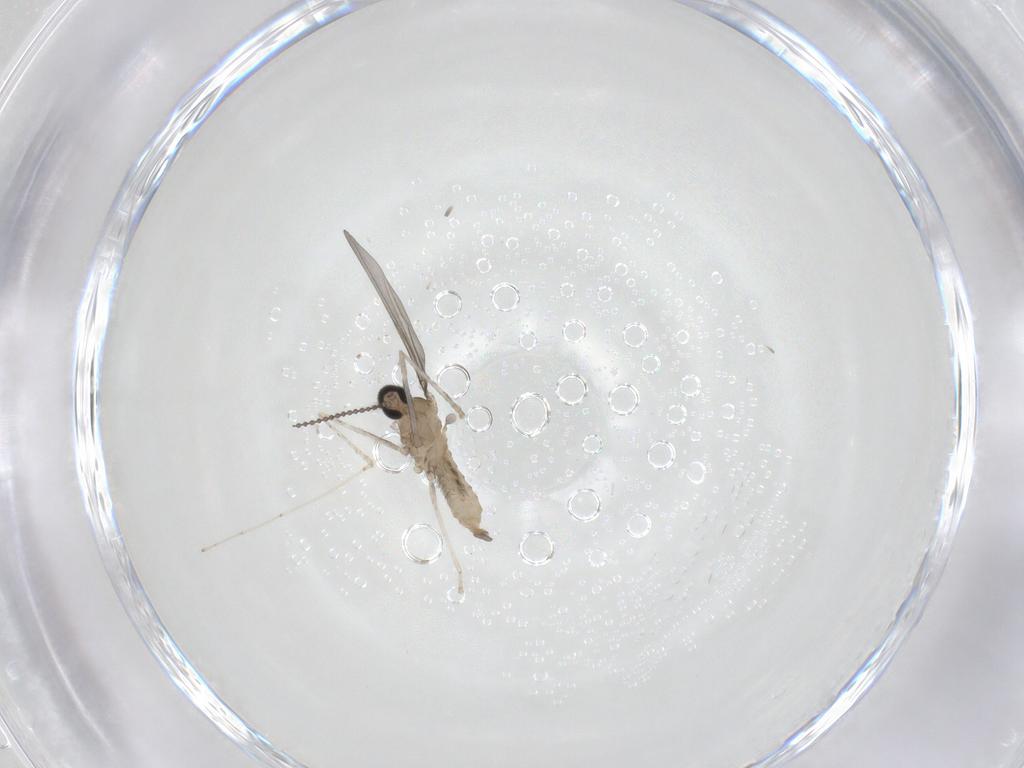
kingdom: Animalia
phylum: Arthropoda
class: Insecta
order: Diptera
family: Cecidomyiidae
